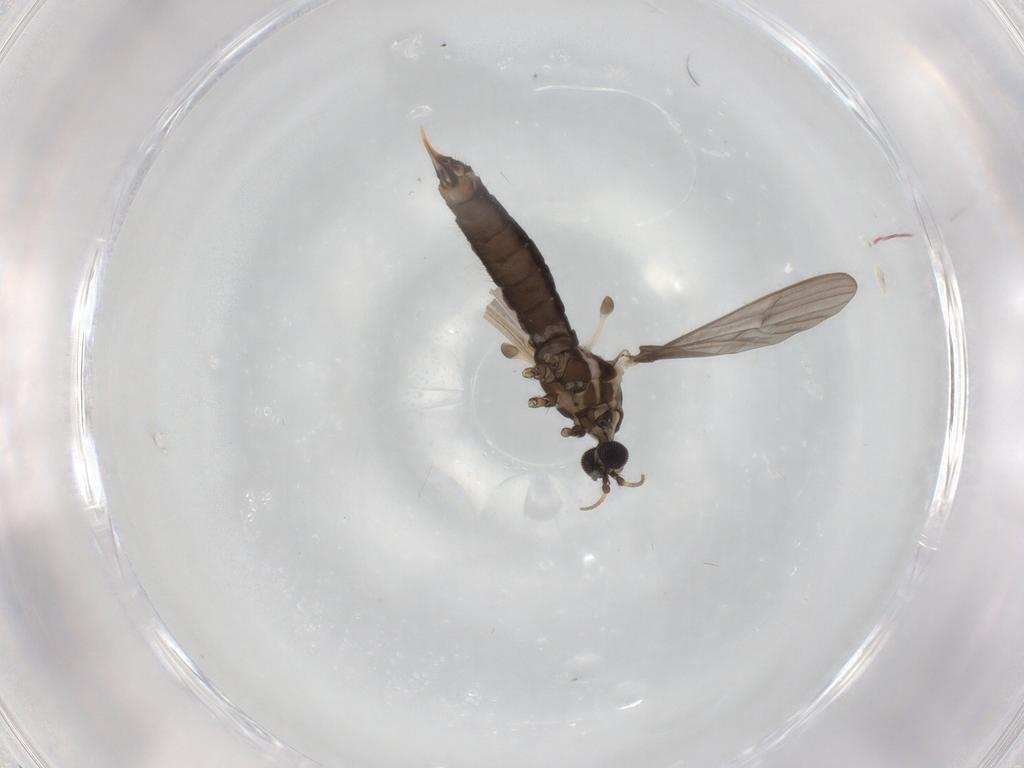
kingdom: Animalia
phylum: Arthropoda
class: Insecta
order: Diptera
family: Limoniidae
